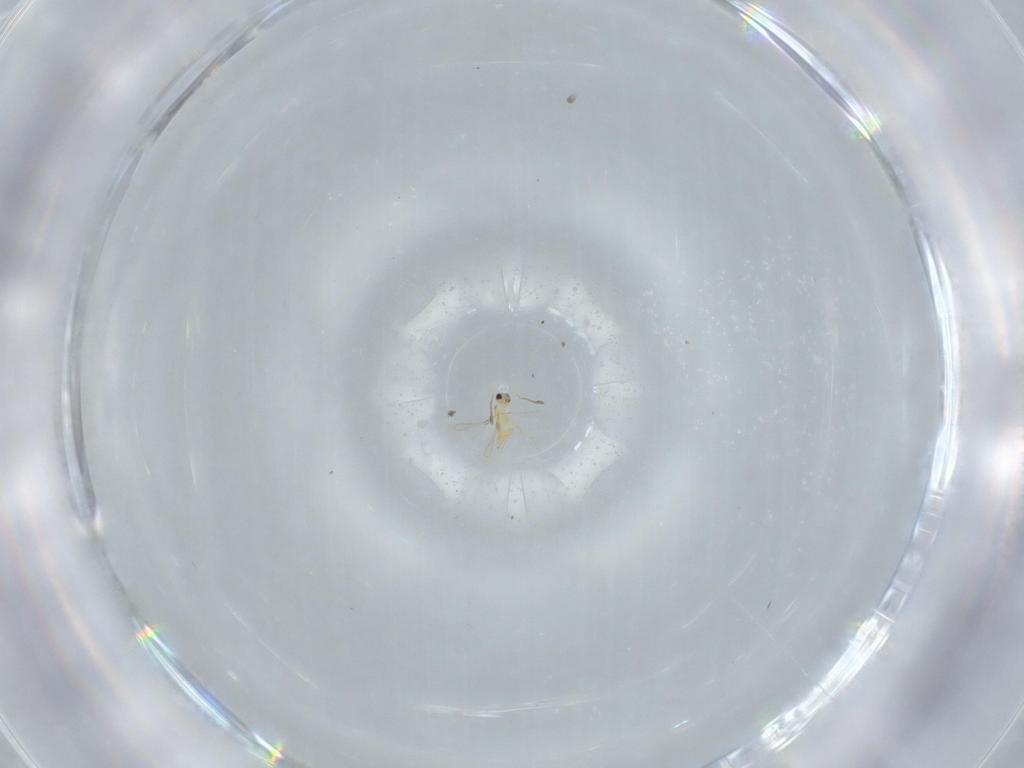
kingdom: Animalia
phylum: Arthropoda
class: Insecta
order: Hymenoptera
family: Mymaridae
